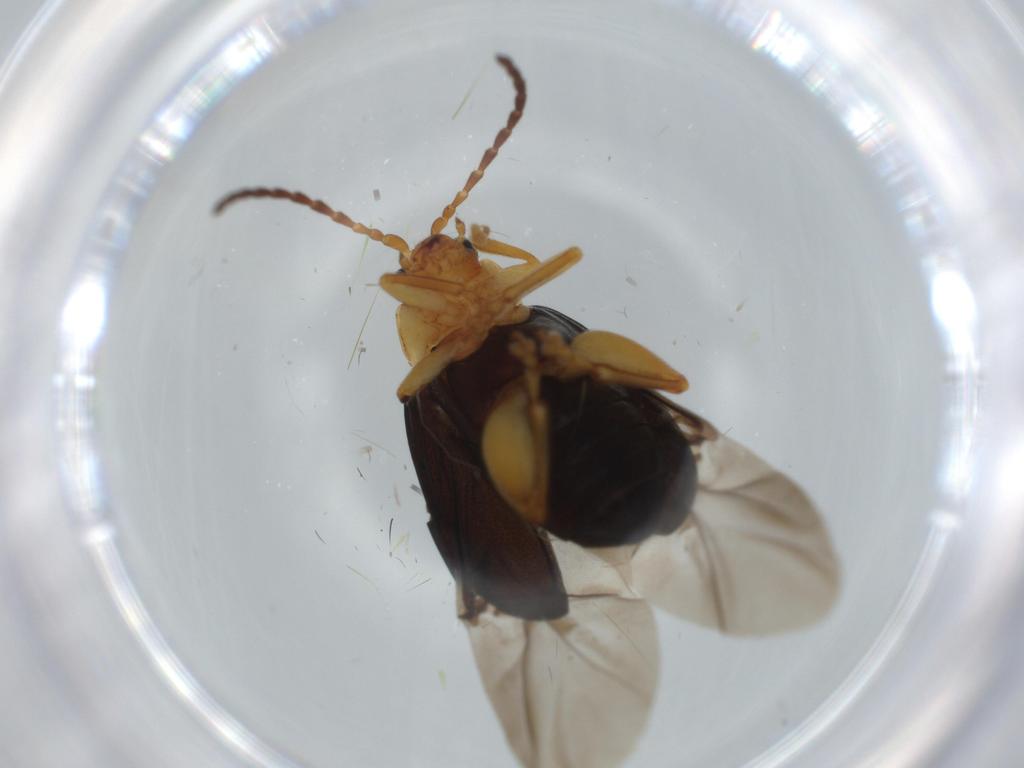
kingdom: Animalia
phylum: Arthropoda
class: Insecta
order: Coleoptera
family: Chrysomelidae
